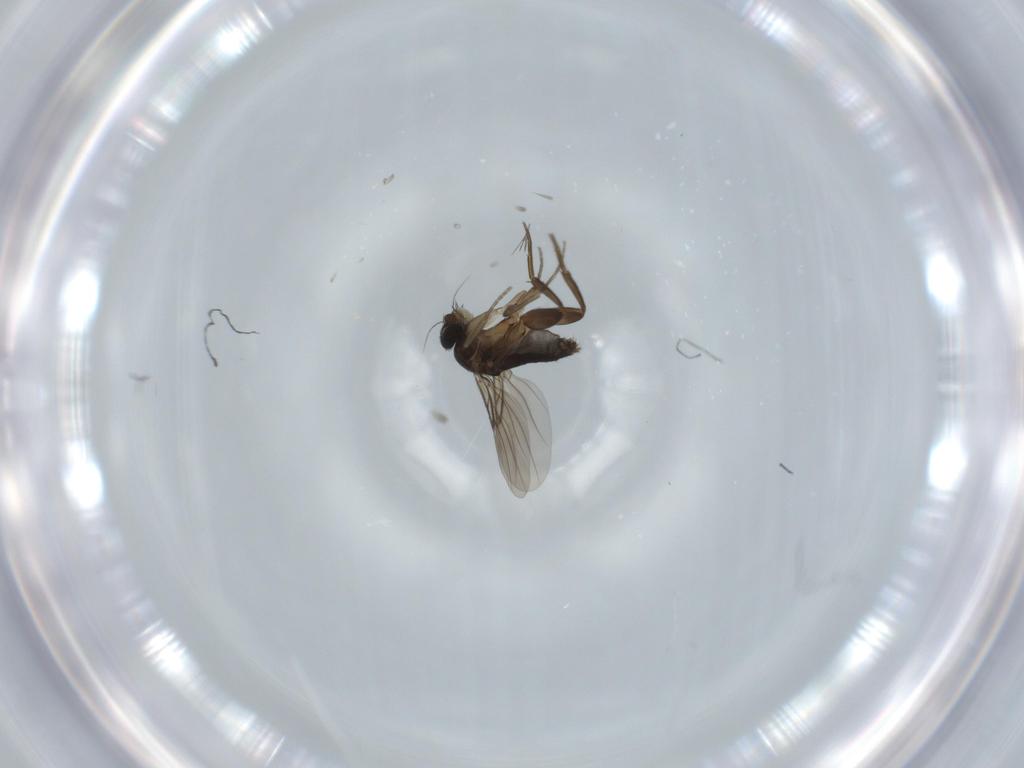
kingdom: Animalia
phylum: Arthropoda
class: Insecta
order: Diptera
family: Phoridae
